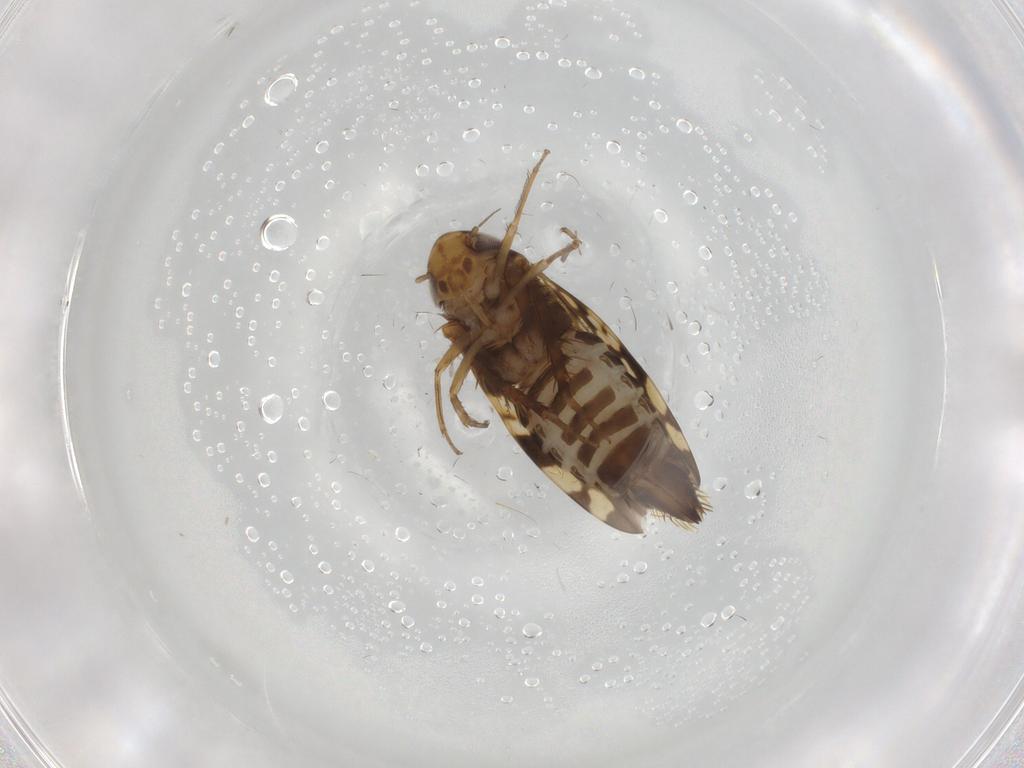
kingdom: Animalia
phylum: Arthropoda
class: Insecta
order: Hemiptera
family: Cicadellidae
